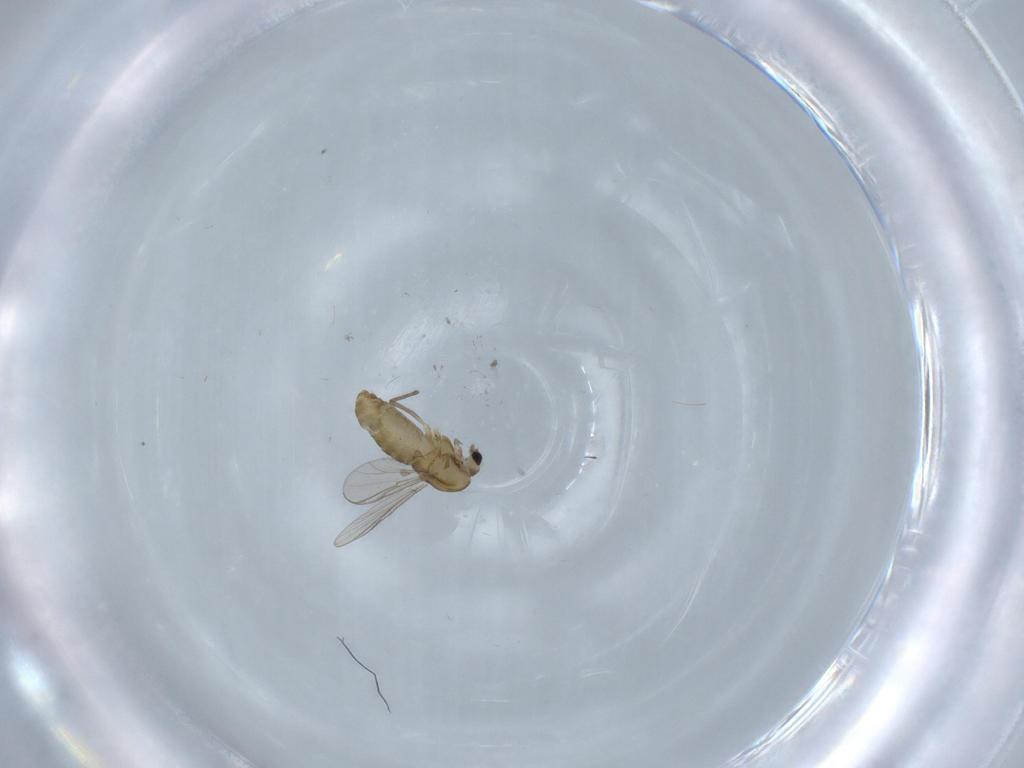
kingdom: Animalia
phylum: Arthropoda
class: Insecta
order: Diptera
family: Chironomidae
